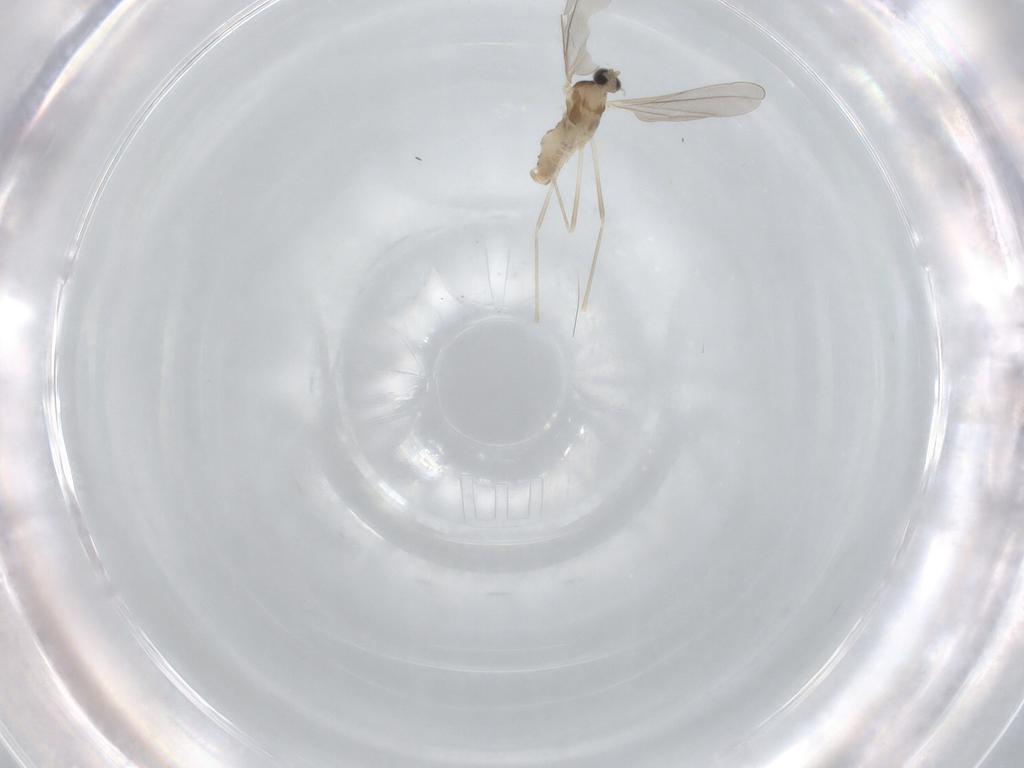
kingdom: Animalia
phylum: Arthropoda
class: Insecta
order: Diptera
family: Cecidomyiidae
